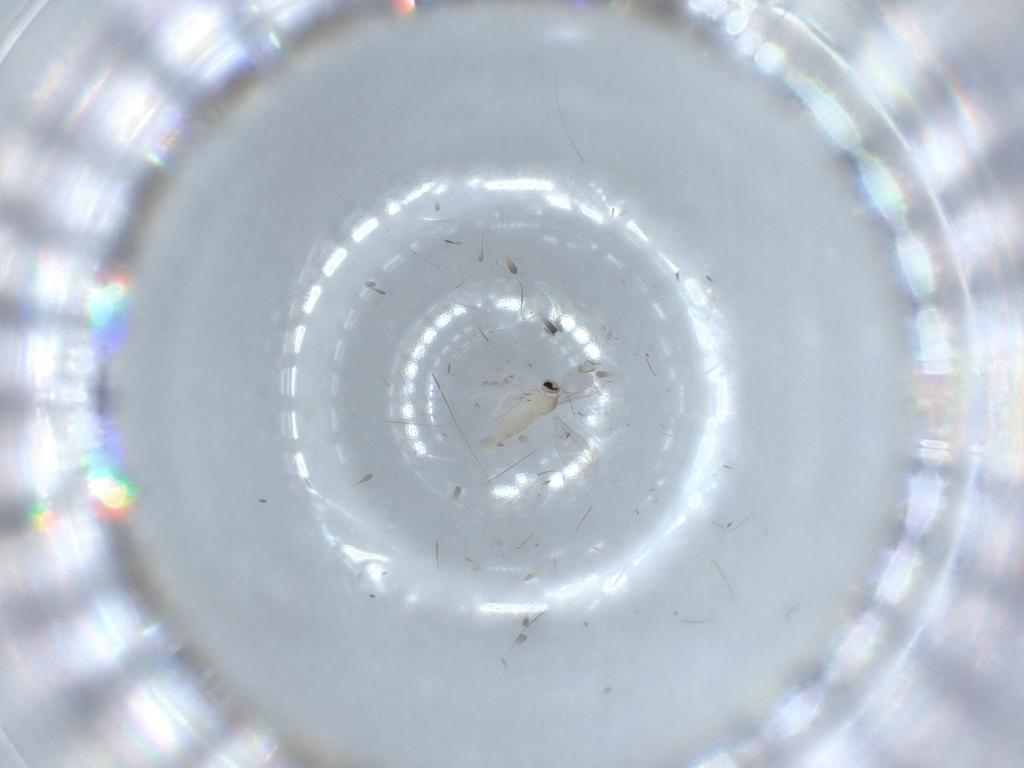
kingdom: Animalia
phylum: Arthropoda
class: Insecta
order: Diptera
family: Cecidomyiidae
